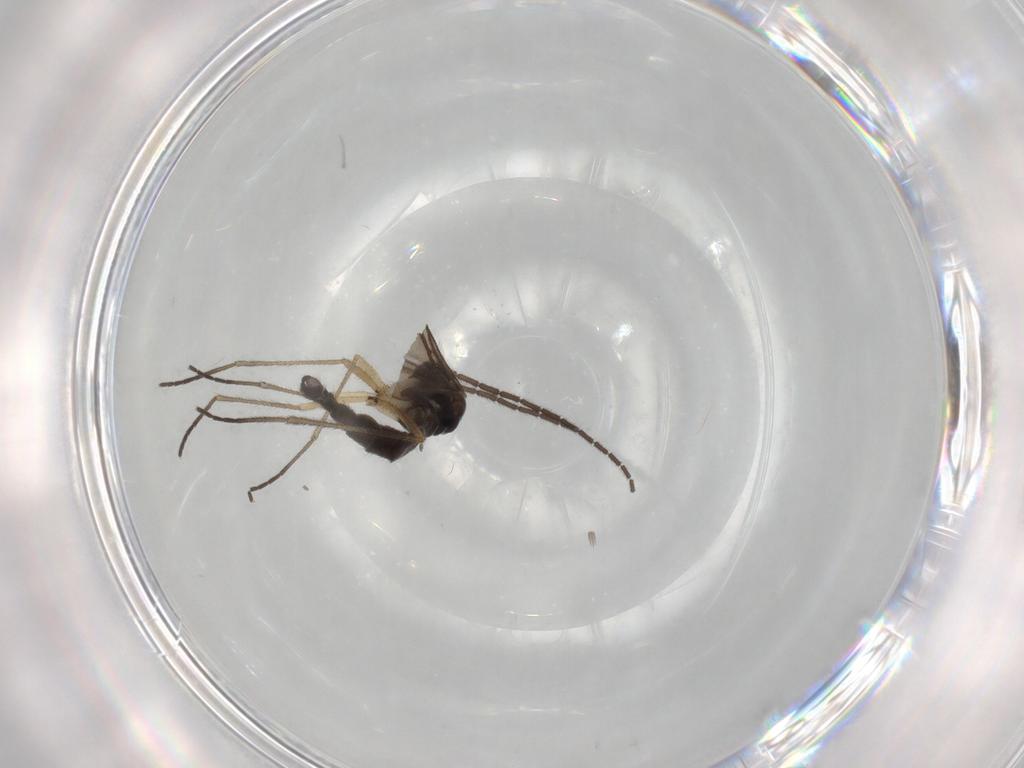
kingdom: Animalia
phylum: Arthropoda
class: Insecta
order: Diptera
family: Sciaridae
